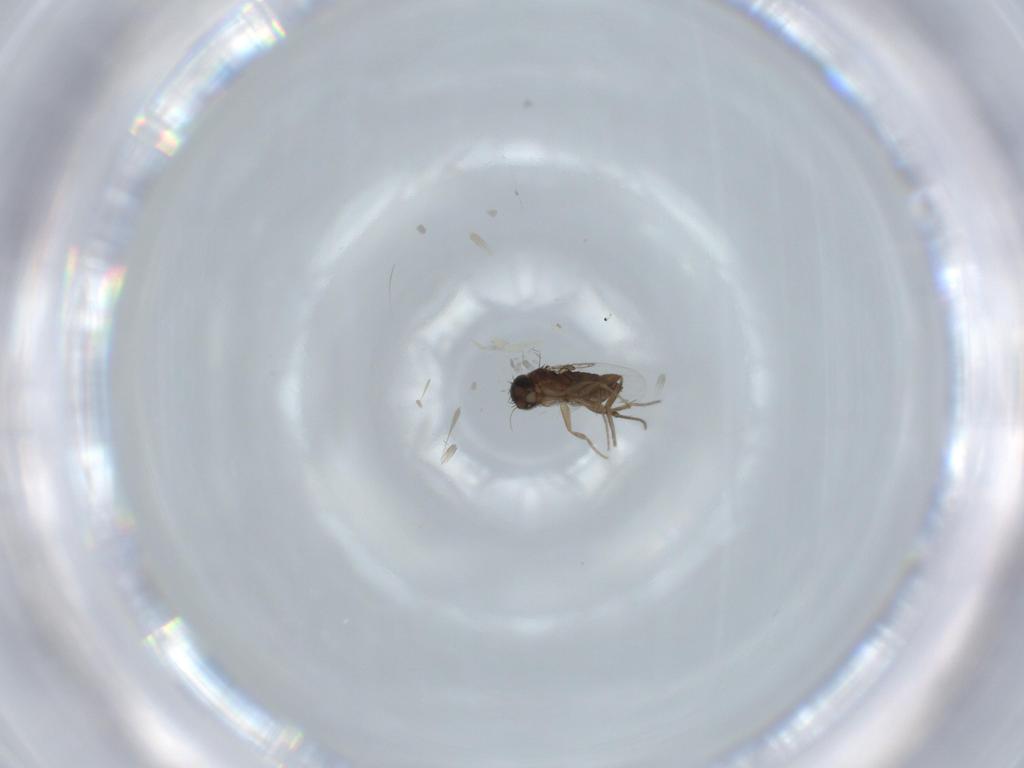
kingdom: Animalia
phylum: Arthropoda
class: Insecta
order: Diptera
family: Phoridae
